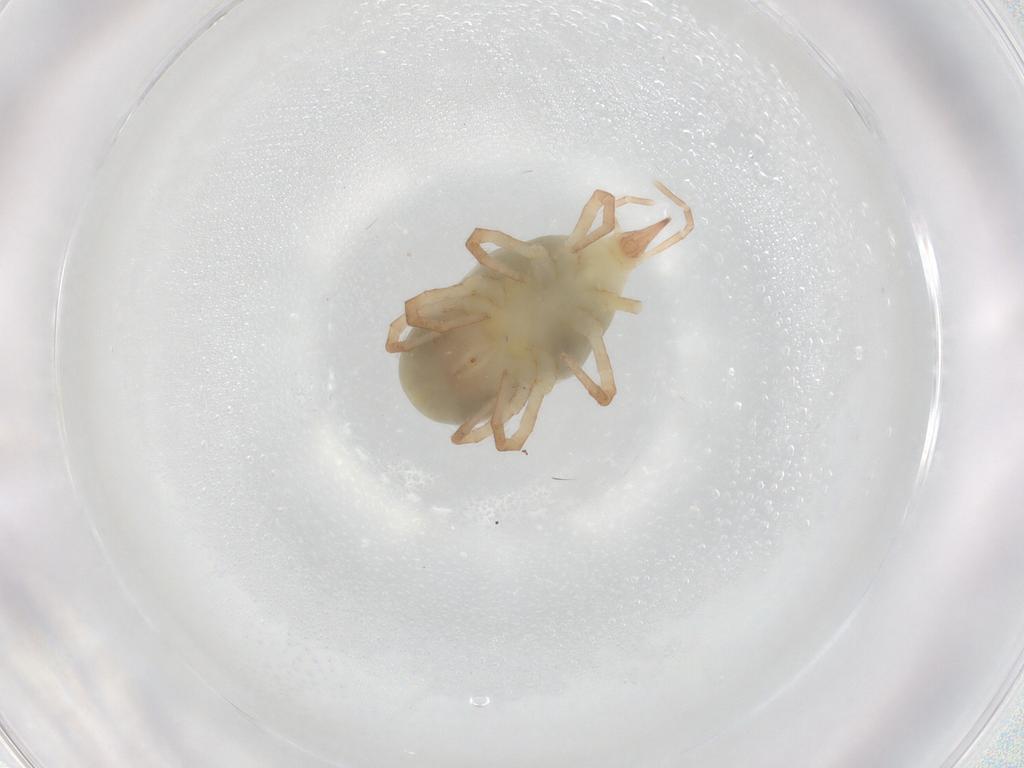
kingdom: Animalia
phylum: Arthropoda
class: Arachnida
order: Trombidiformes
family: Bdellidae
